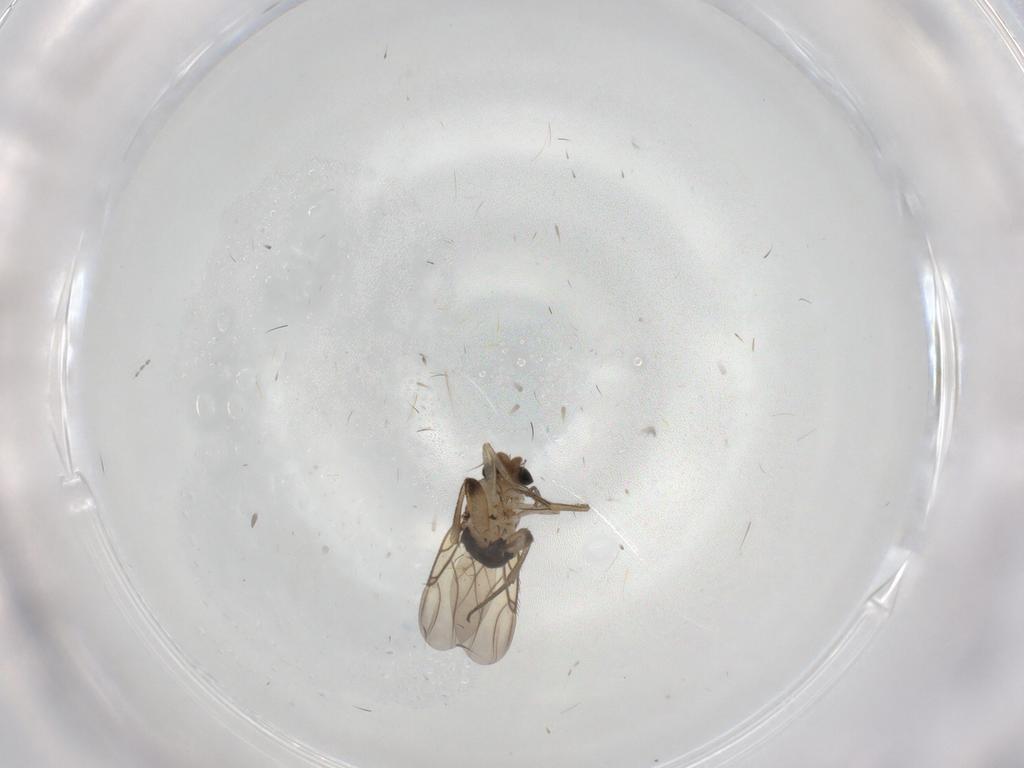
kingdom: Animalia
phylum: Arthropoda
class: Insecta
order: Diptera
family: Phoridae
